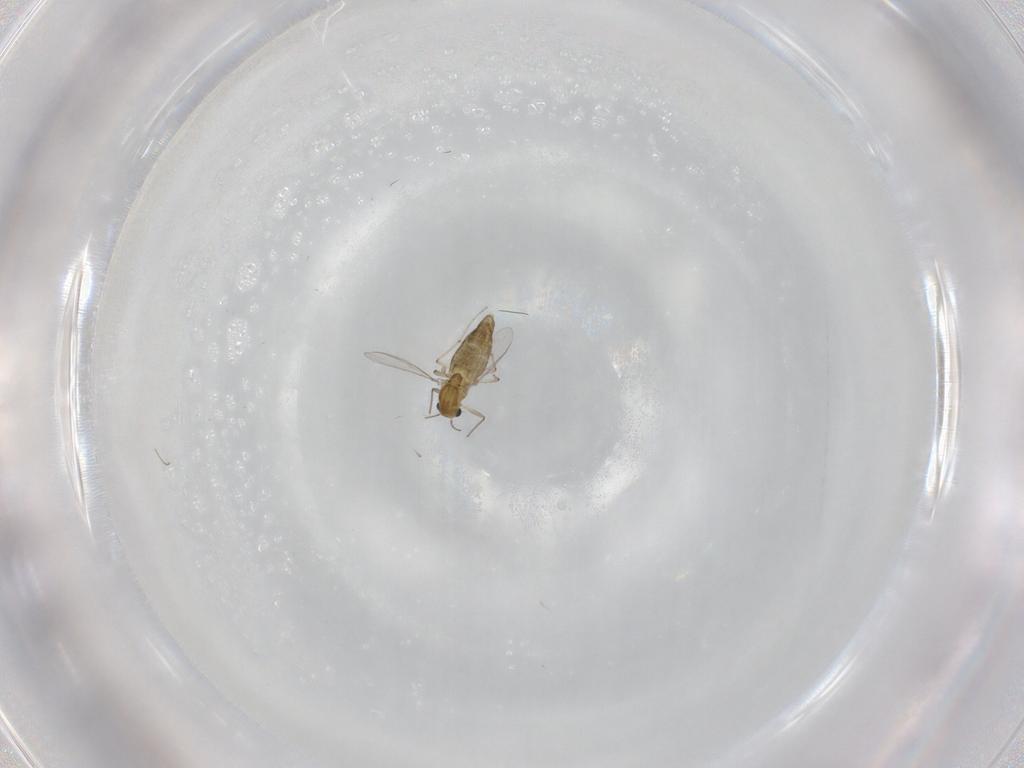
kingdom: Animalia
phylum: Arthropoda
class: Insecta
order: Diptera
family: Chironomidae
